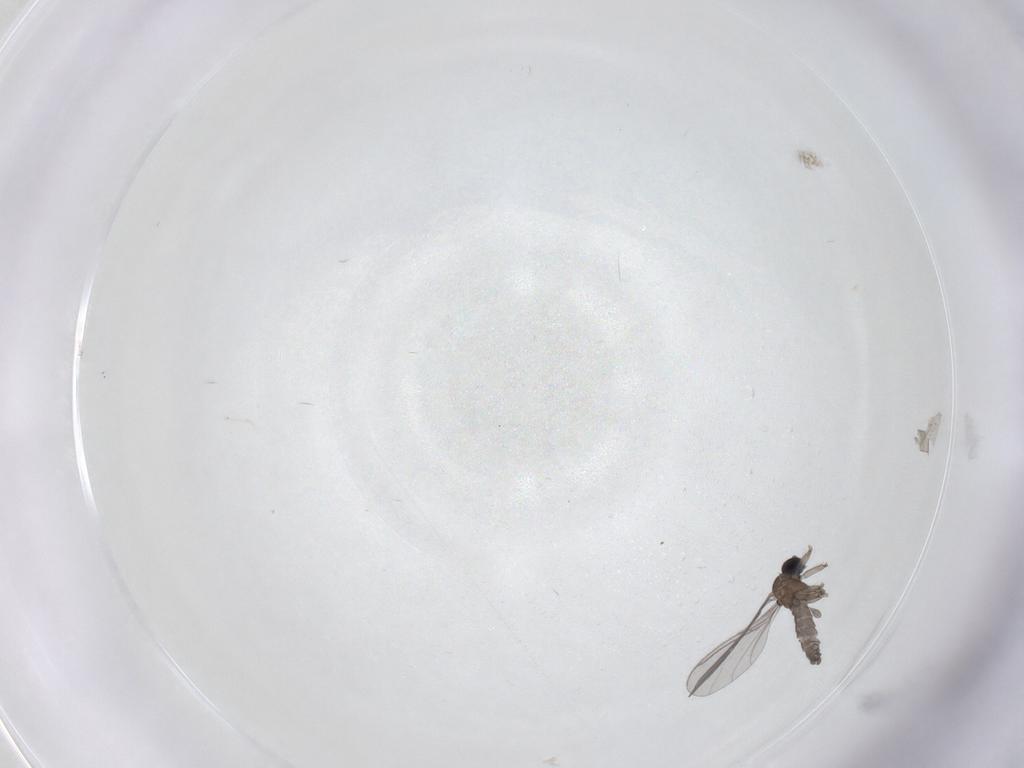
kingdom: Animalia
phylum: Arthropoda
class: Insecta
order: Diptera
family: Sciaridae
